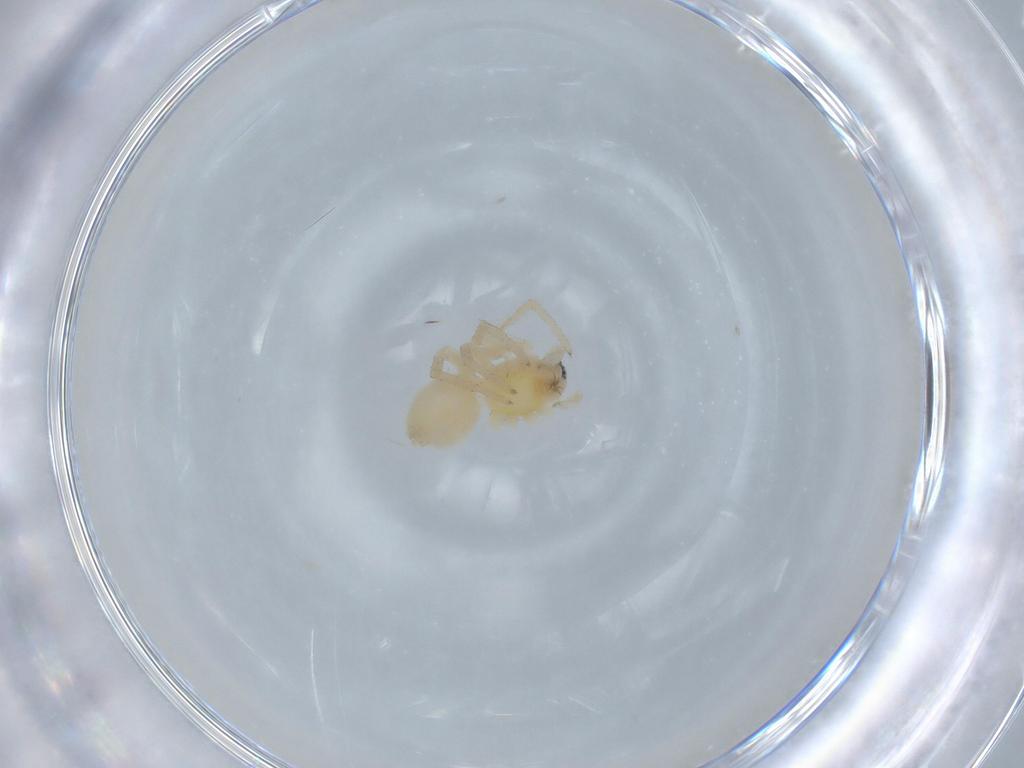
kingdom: Animalia
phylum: Arthropoda
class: Arachnida
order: Araneae
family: Anyphaenidae
